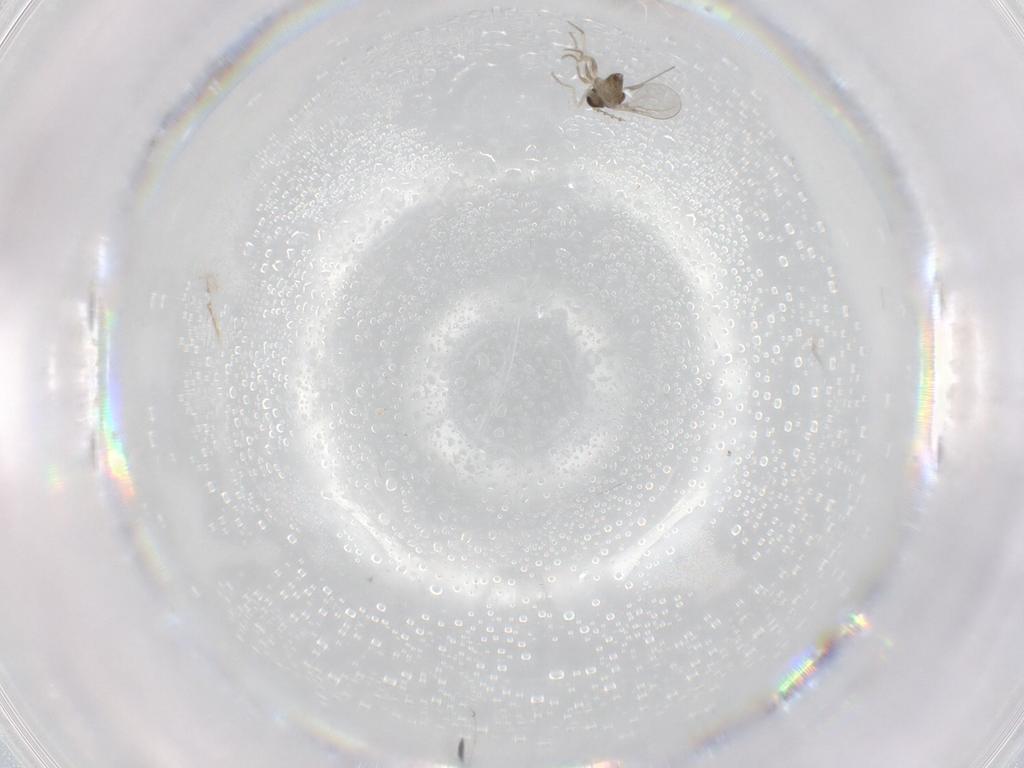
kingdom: Animalia
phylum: Arthropoda
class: Insecta
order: Diptera
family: Cecidomyiidae
